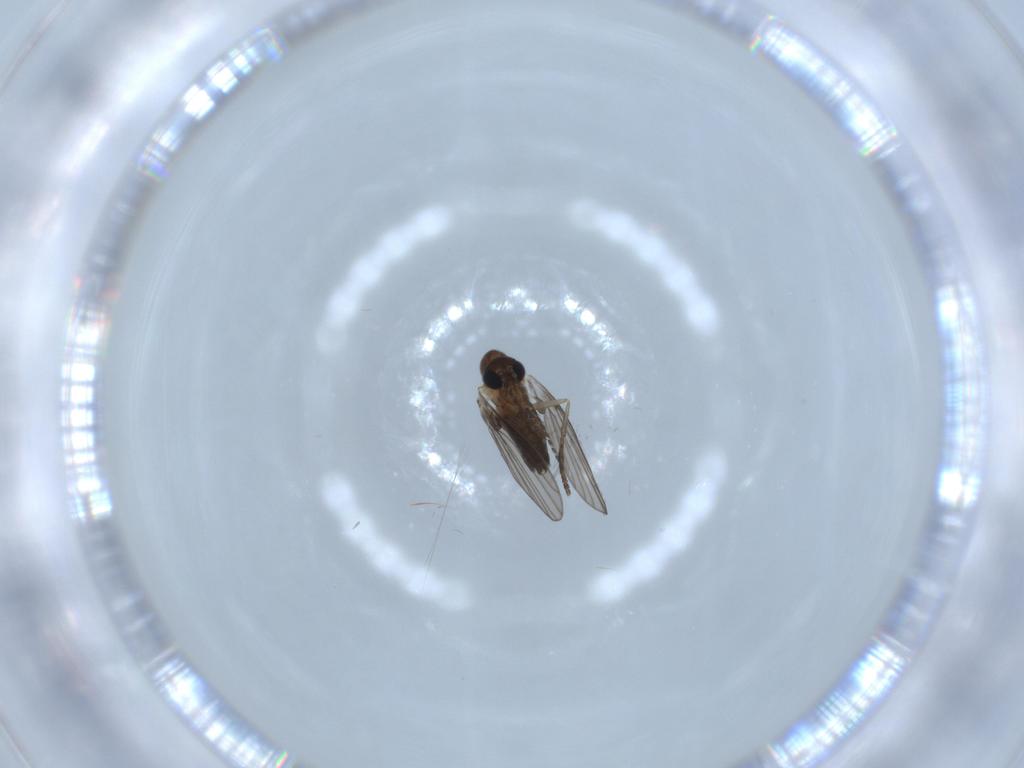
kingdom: Animalia
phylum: Arthropoda
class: Insecta
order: Diptera
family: Psychodidae
